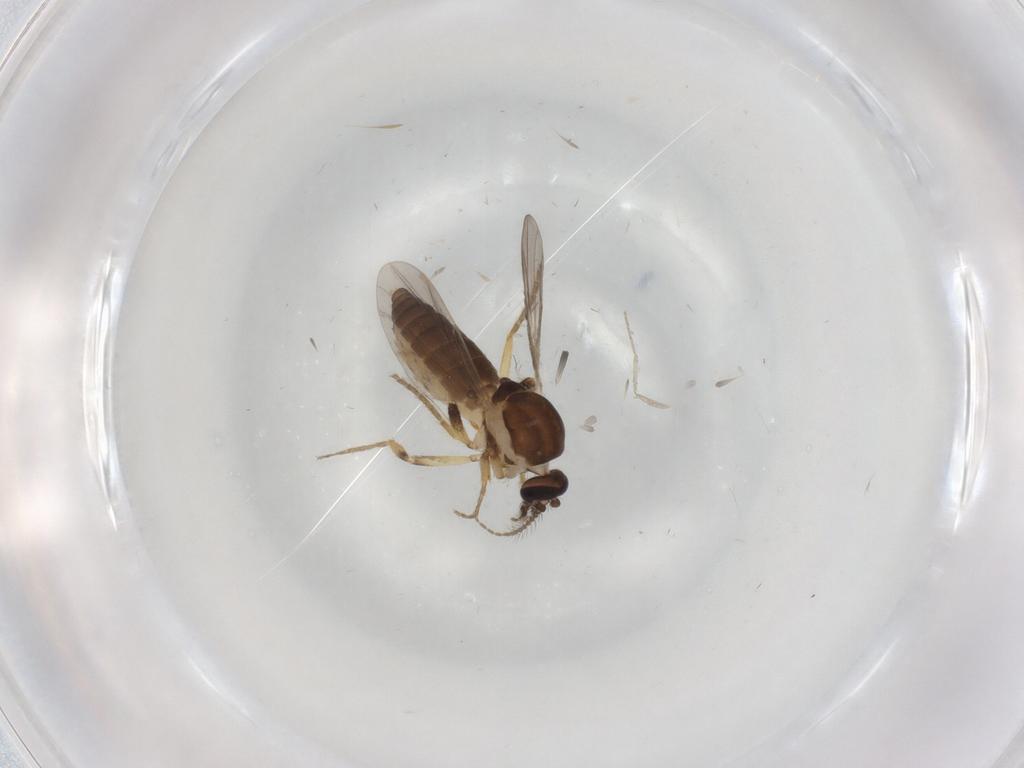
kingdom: Animalia
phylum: Arthropoda
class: Insecta
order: Diptera
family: Ceratopogonidae
